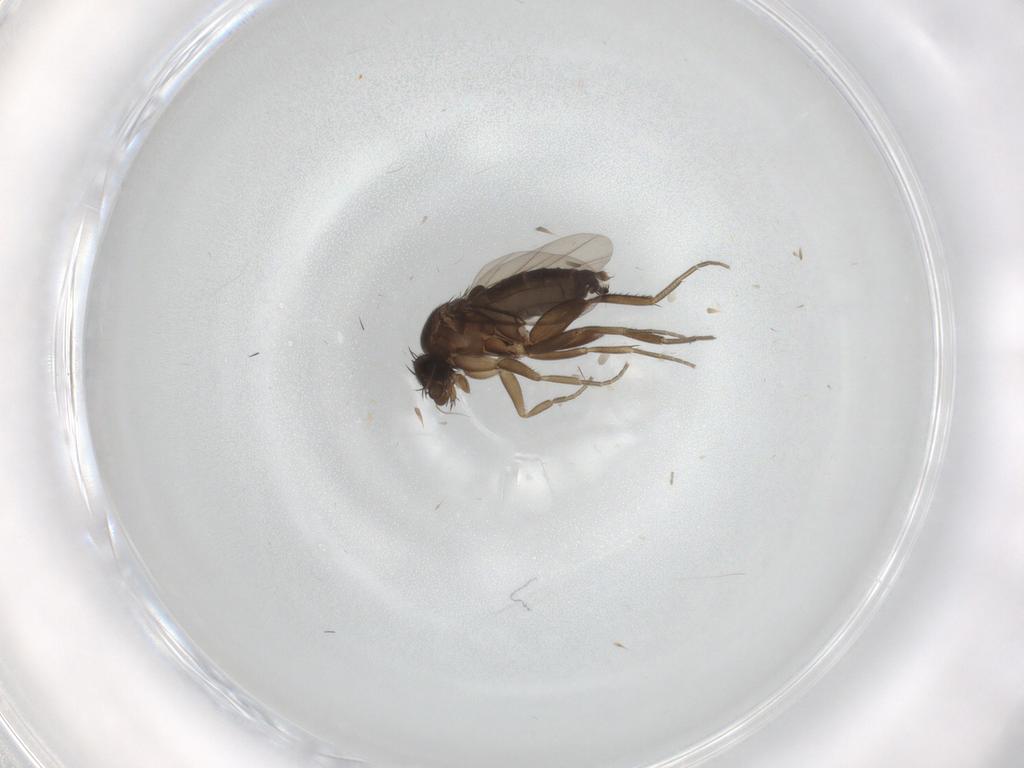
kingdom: Animalia
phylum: Arthropoda
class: Insecta
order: Diptera
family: Phoridae
